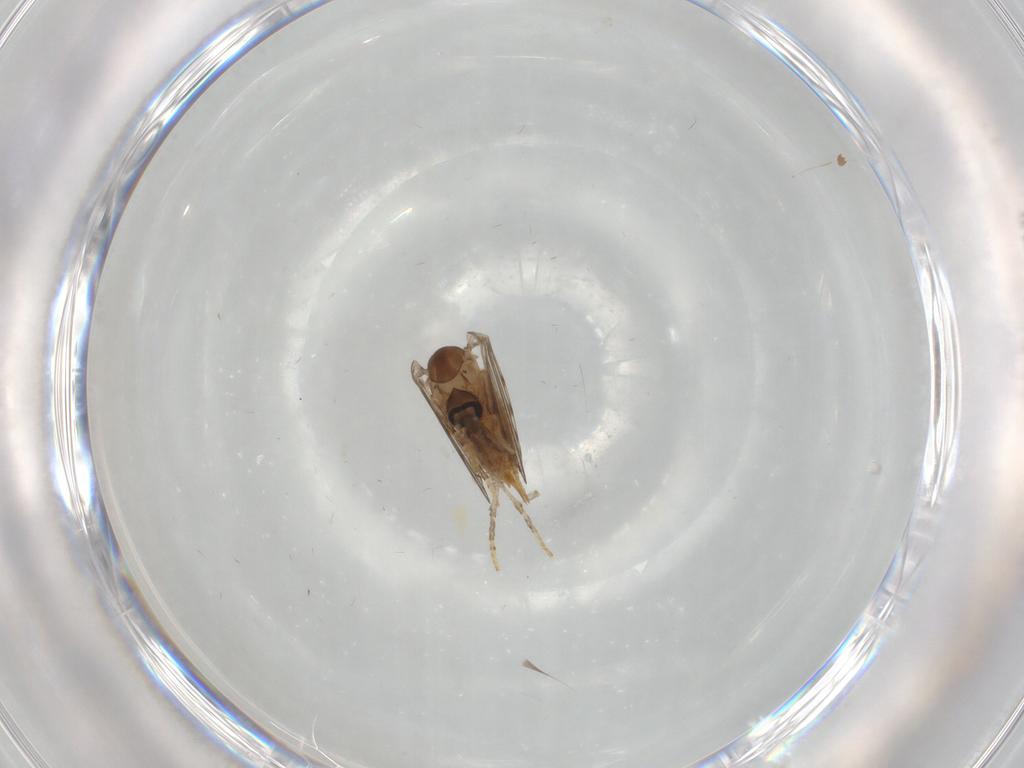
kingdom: Animalia
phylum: Arthropoda
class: Insecta
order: Diptera
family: Psychodidae
